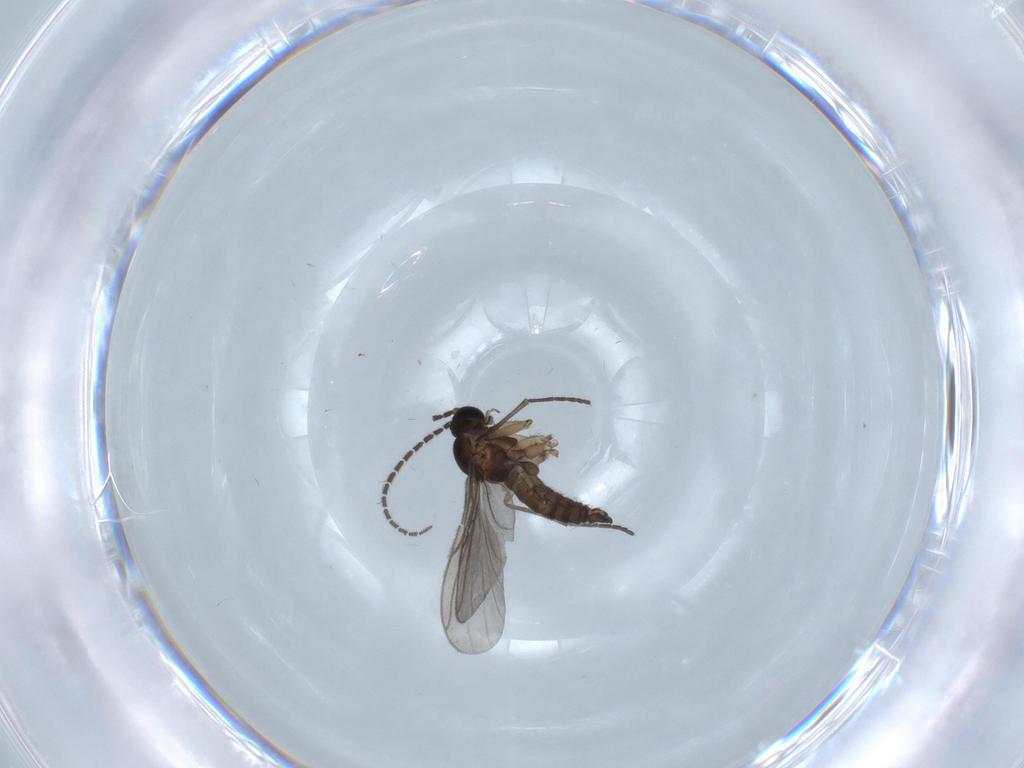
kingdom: Animalia
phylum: Arthropoda
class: Insecta
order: Diptera
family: Sciaridae
